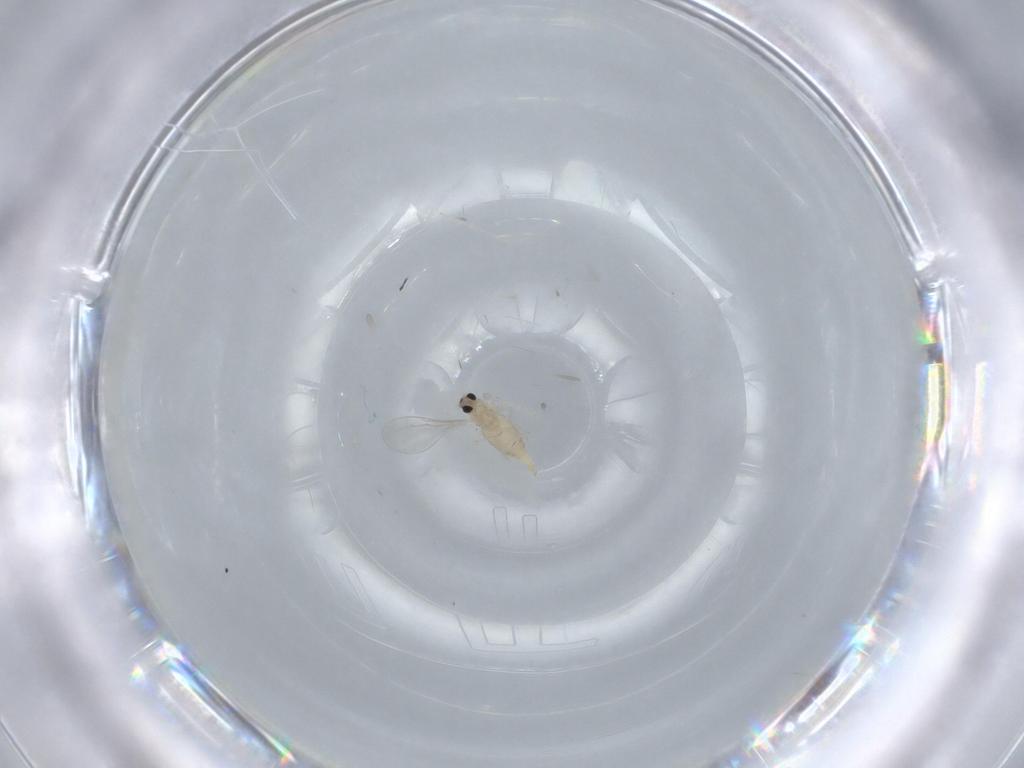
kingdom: Animalia
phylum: Arthropoda
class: Insecta
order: Diptera
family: Cecidomyiidae
